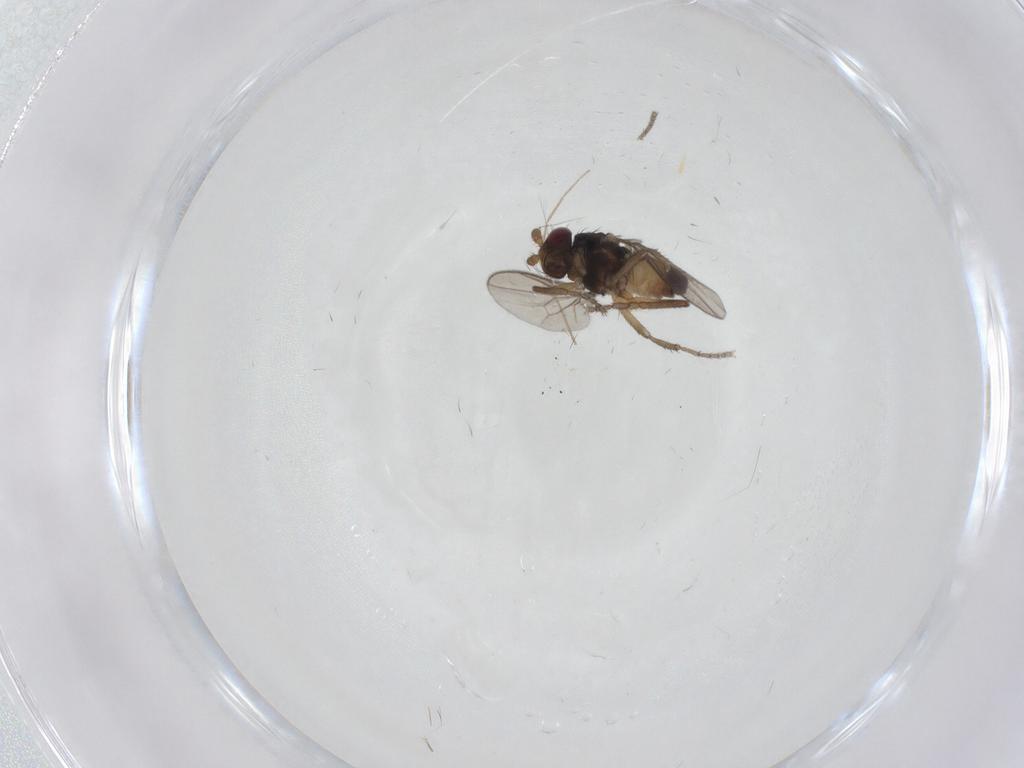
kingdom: Animalia
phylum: Arthropoda
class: Insecta
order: Diptera
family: Sphaeroceridae
